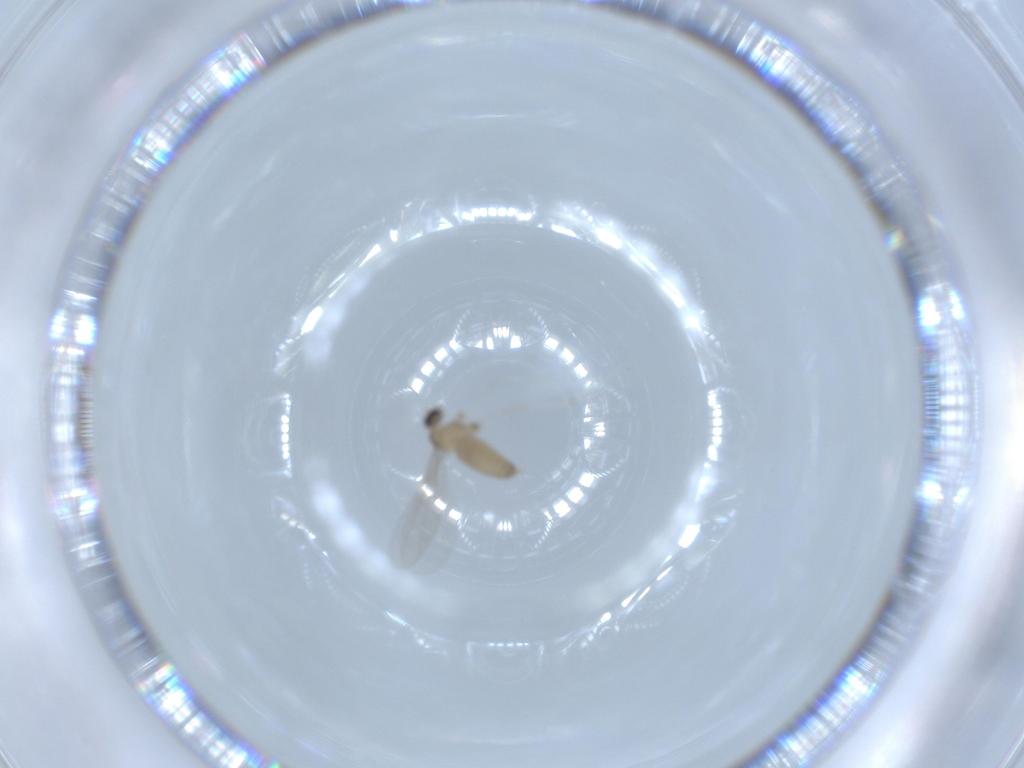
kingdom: Animalia
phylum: Arthropoda
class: Insecta
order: Diptera
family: Cecidomyiidae
